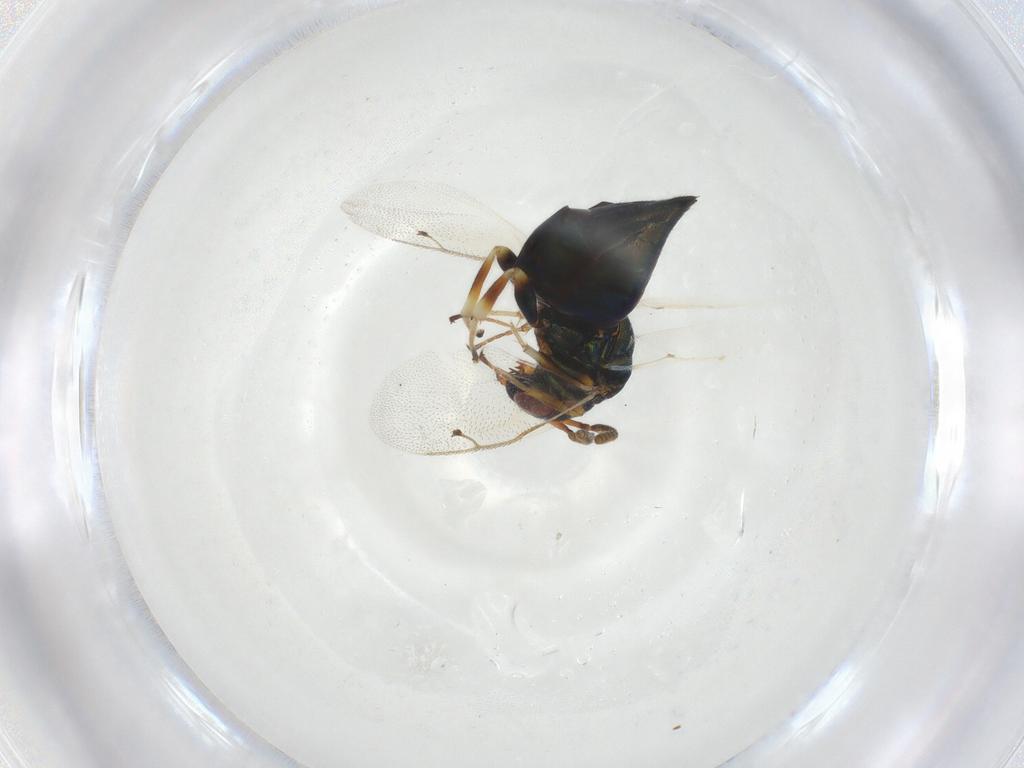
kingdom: Animalia
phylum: Arthropoda
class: Insecta
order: Hymenoptera
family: Pteromalidae
